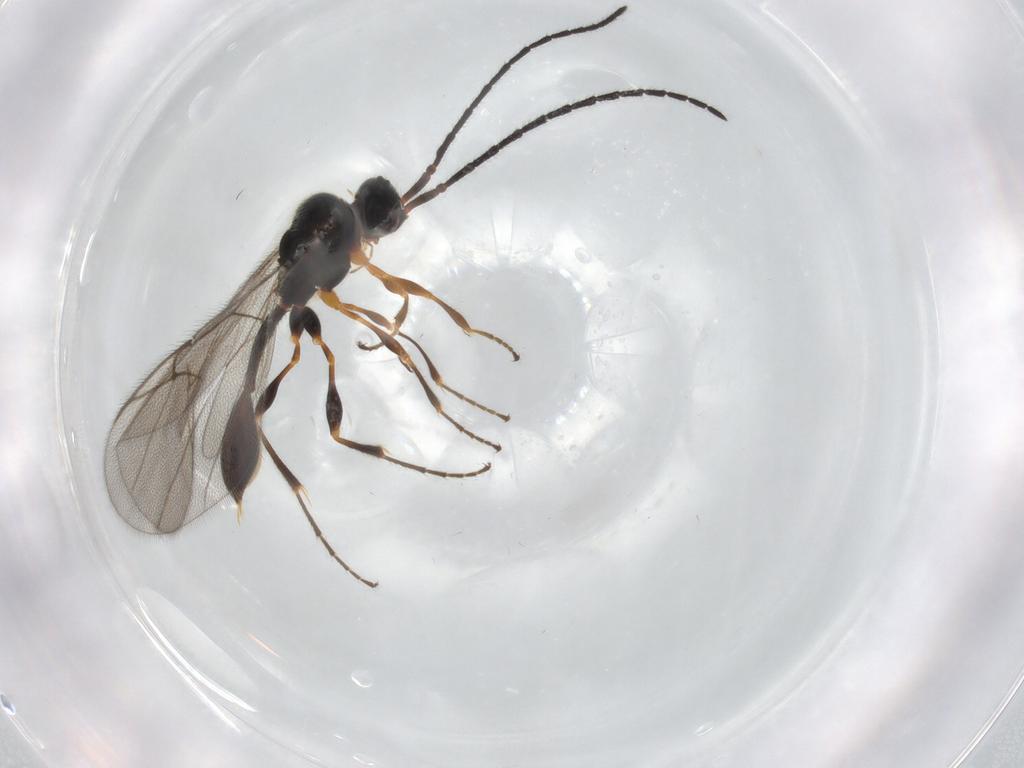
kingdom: Animalia
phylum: Arthropoda
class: Insecta
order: Hymenoptera
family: Diapriidae
